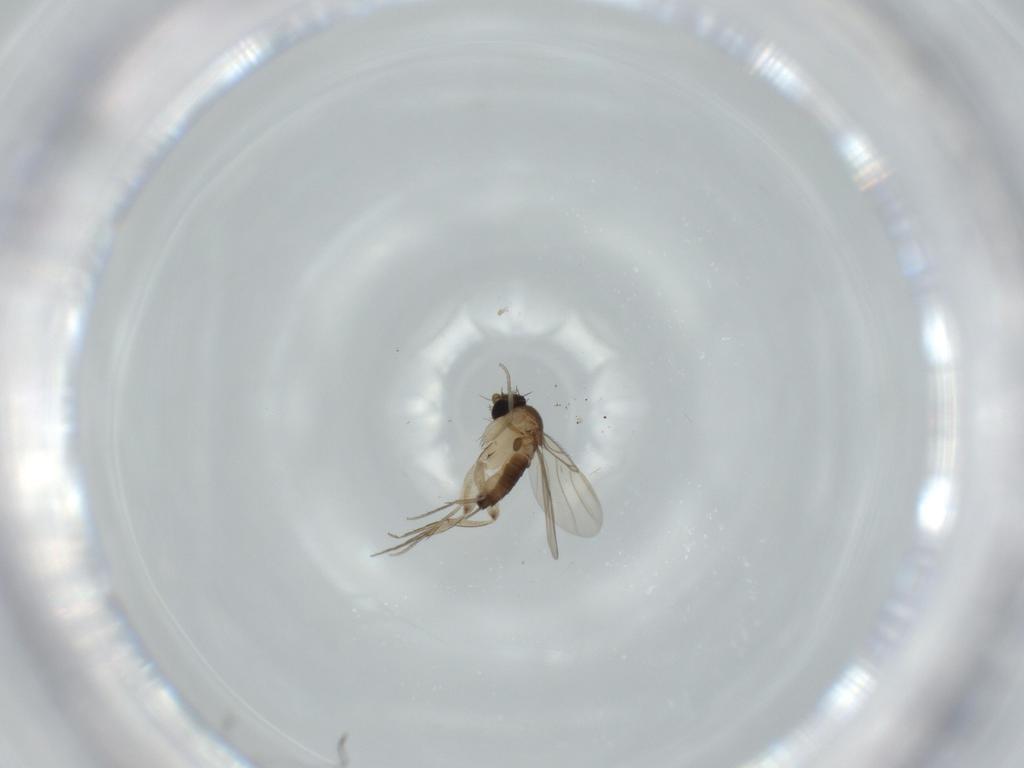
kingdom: Animalia
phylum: Arthropoda
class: Insecta
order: Diptera
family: Phoridae
